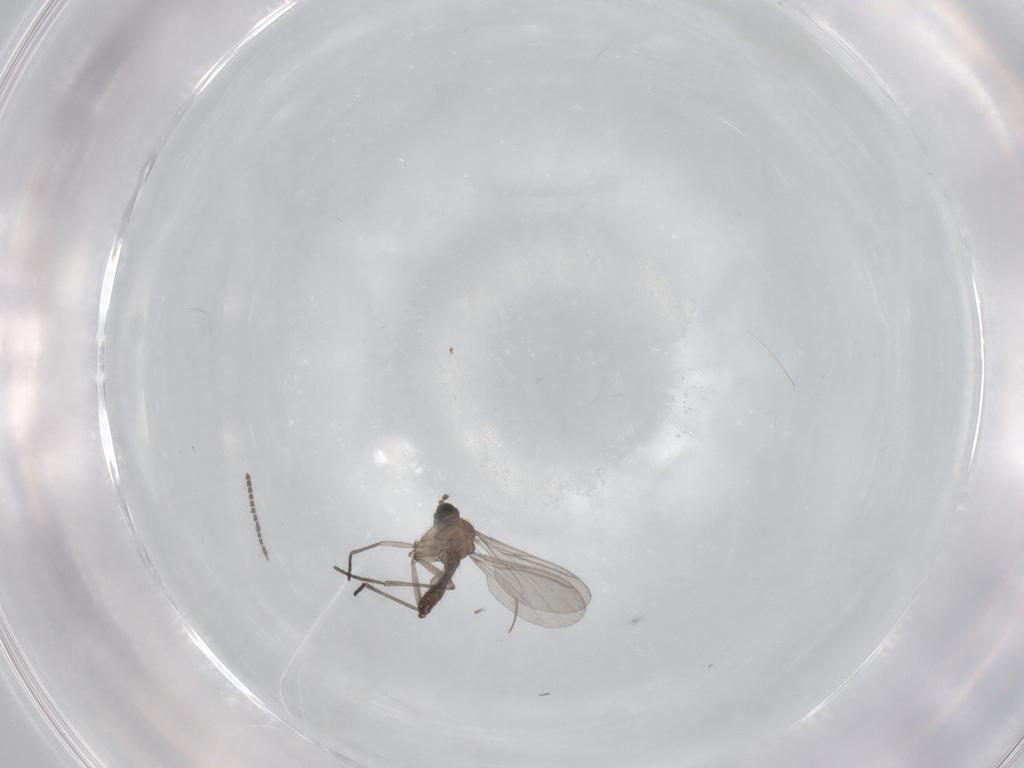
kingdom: Animalia
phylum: Arthropoda
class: Insecta
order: Diptera
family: Sciaridae
